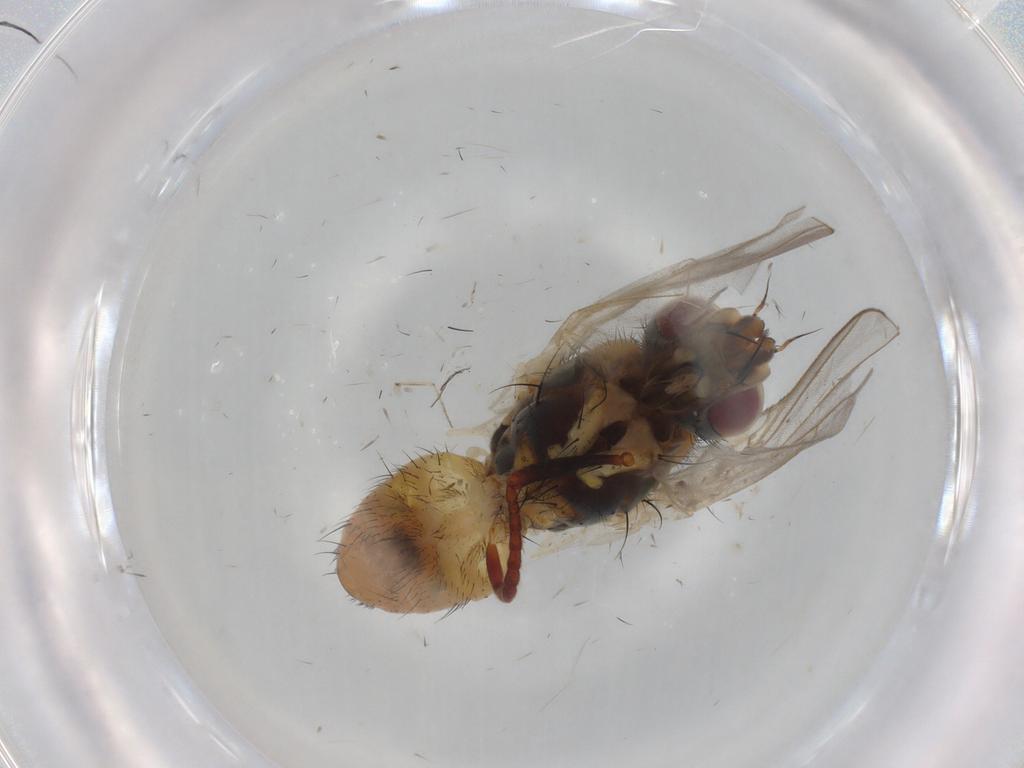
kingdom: Animalia
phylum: Arthropoda
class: Insecta
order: Diptera
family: Muscidae
